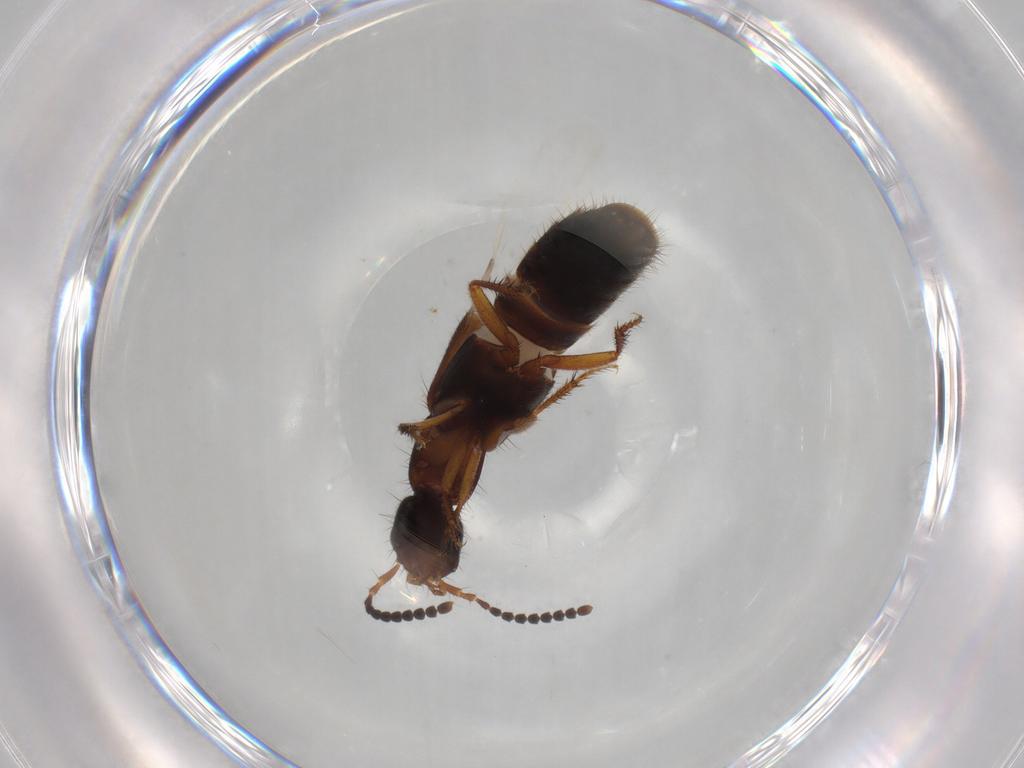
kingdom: Animalia
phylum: Arthropoda
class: Insecta
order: Coleoptera
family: Staphylinidae
